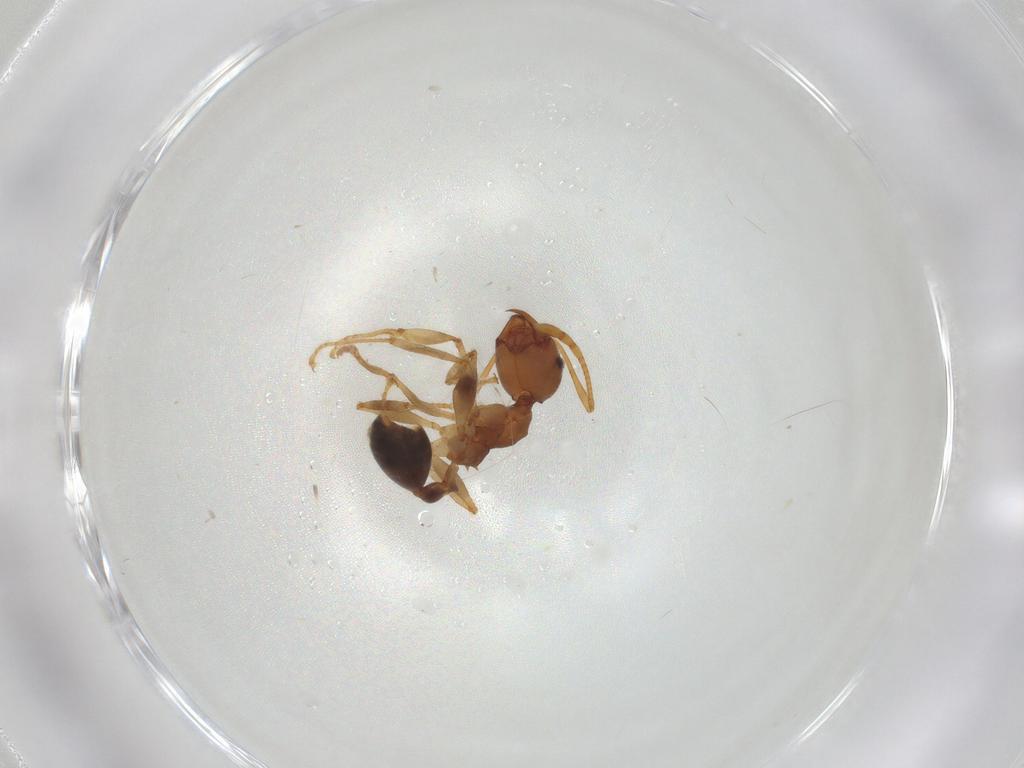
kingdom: Animalia
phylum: Arthropoda
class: Insecta
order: Hymenoptera
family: Formicidae
